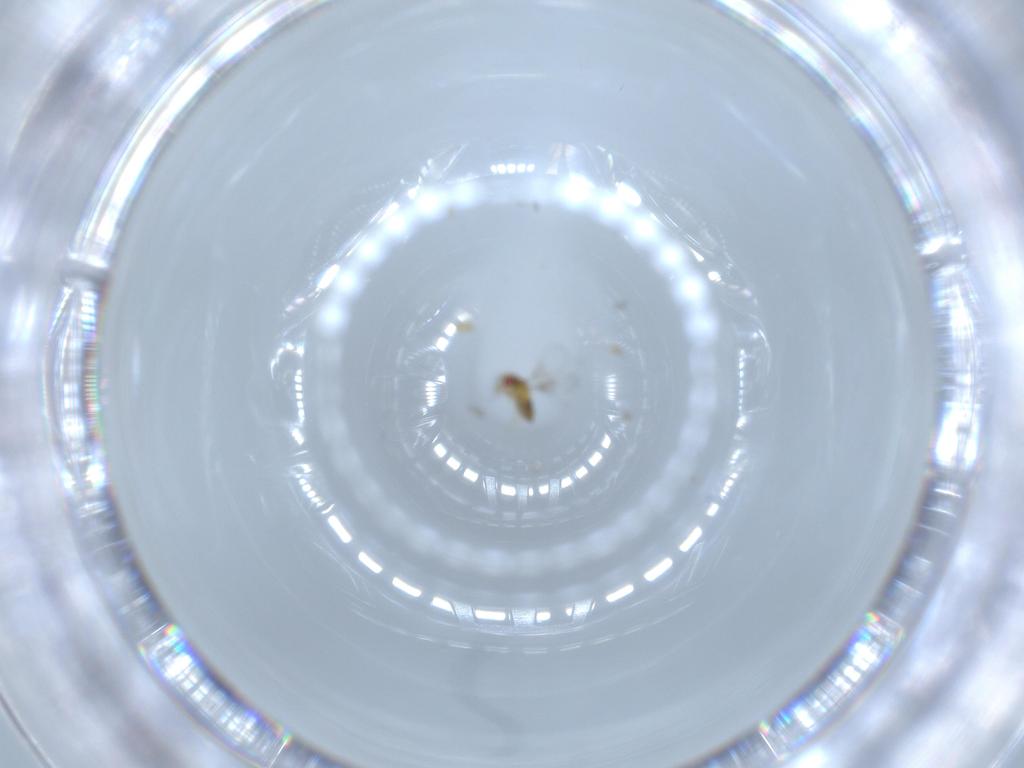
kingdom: Animalia
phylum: Arthropoda
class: Insecta
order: Hymenoptera
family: Trichogrammatidae
